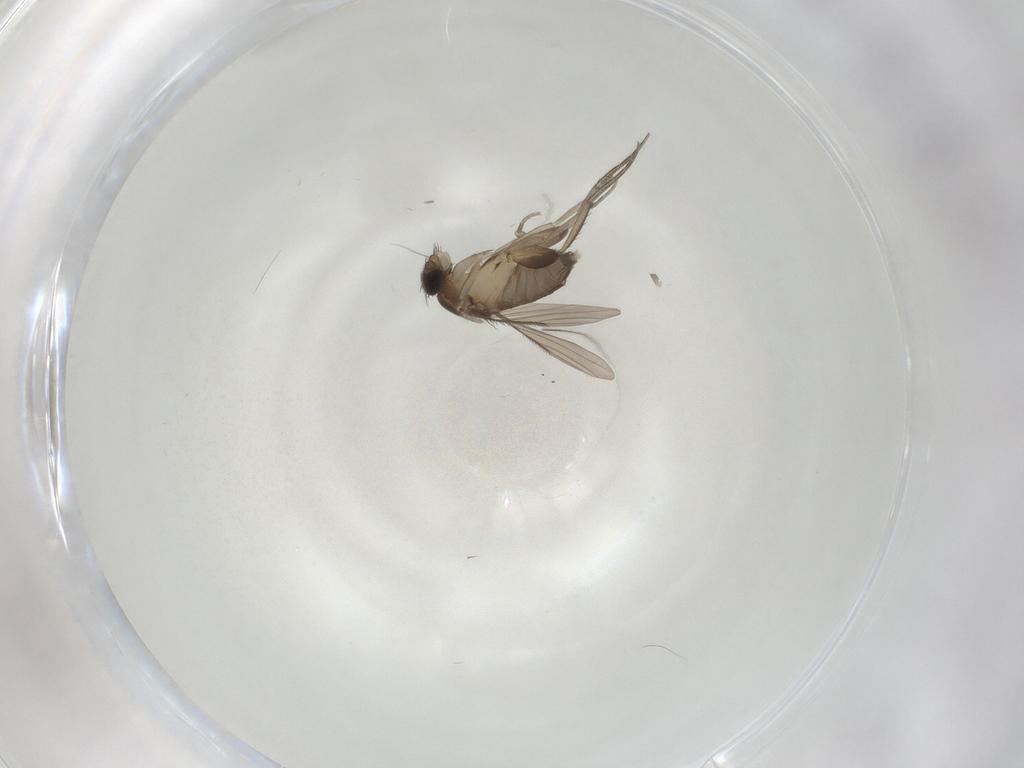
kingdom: Animalia
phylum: Arthropoda
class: Insecta
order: Diptera
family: Phoridae
